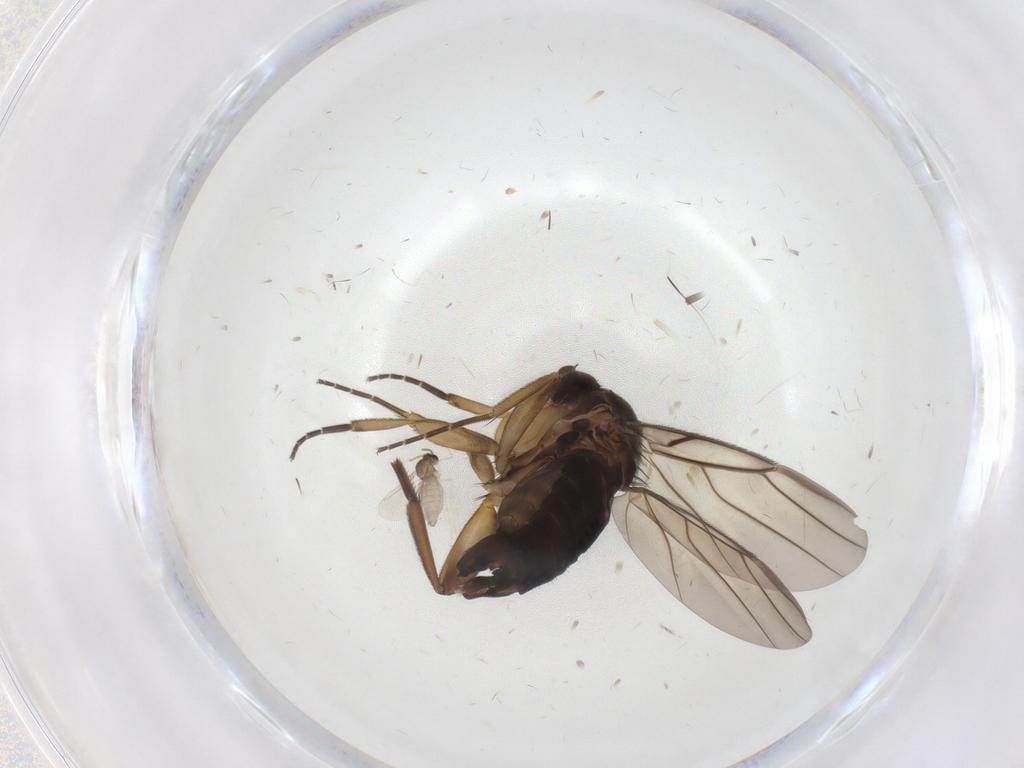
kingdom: Animalia
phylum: Arthropoda
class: Insecta
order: Diptera
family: Phoridae
